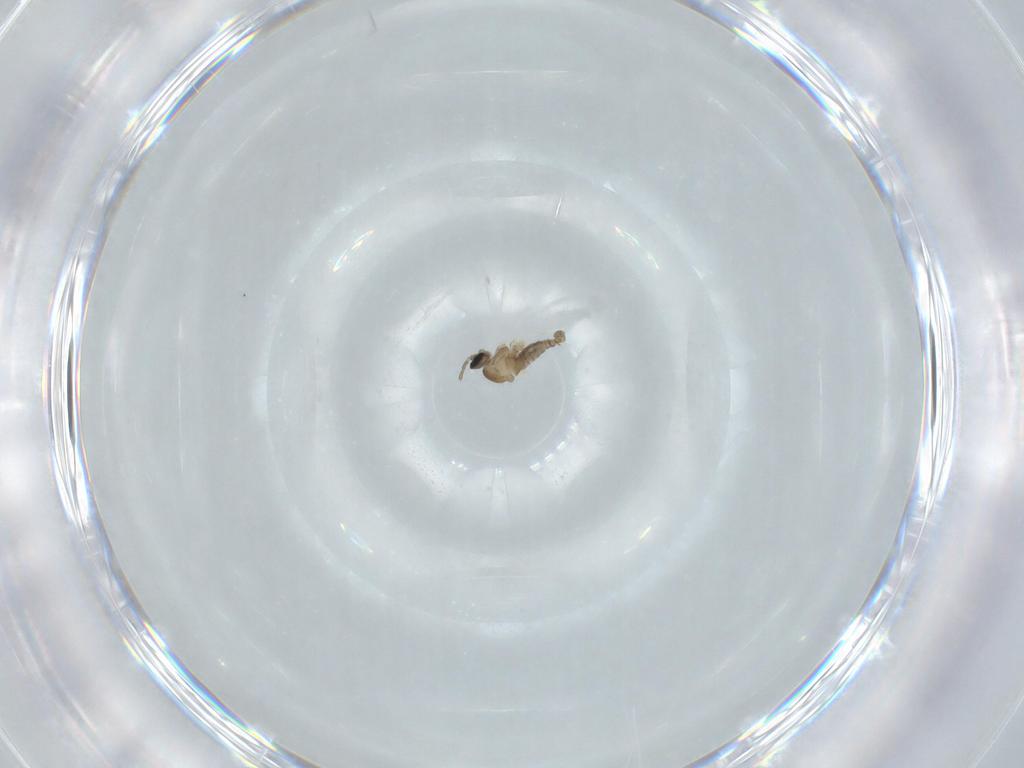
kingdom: Animalia
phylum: Arthropoda
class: Insecta
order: Diptera
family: Cecidomyiidae
